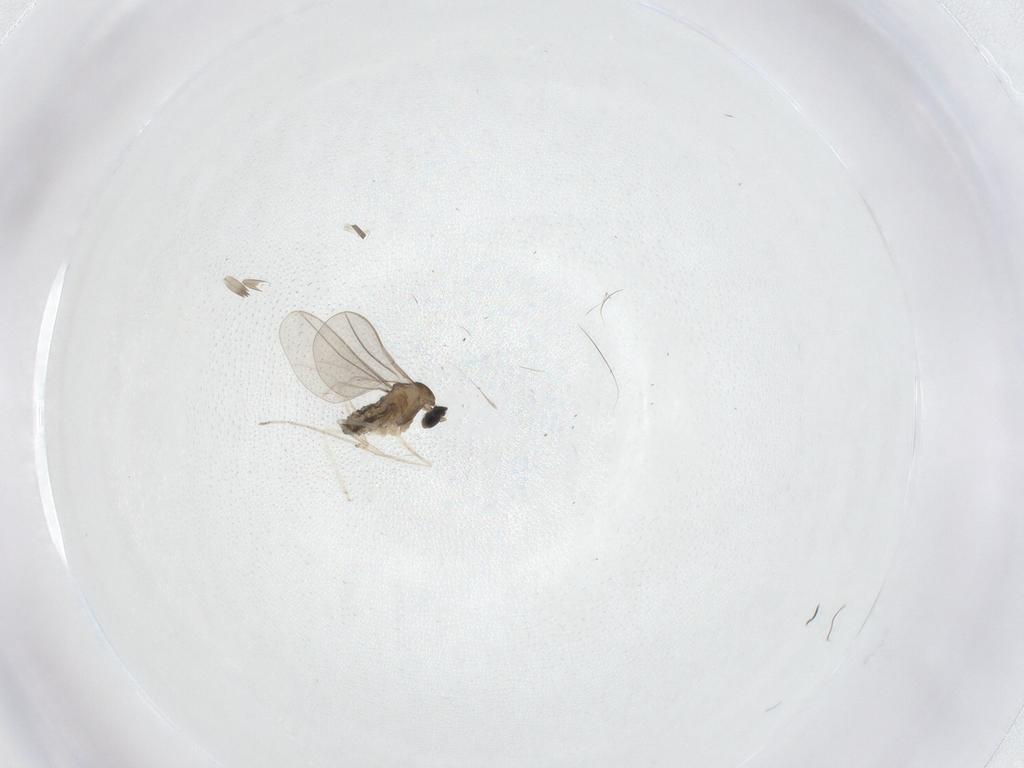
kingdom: Animalia
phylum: Arthropoda
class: Insecta
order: Diptera
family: Cecidomyiidae
